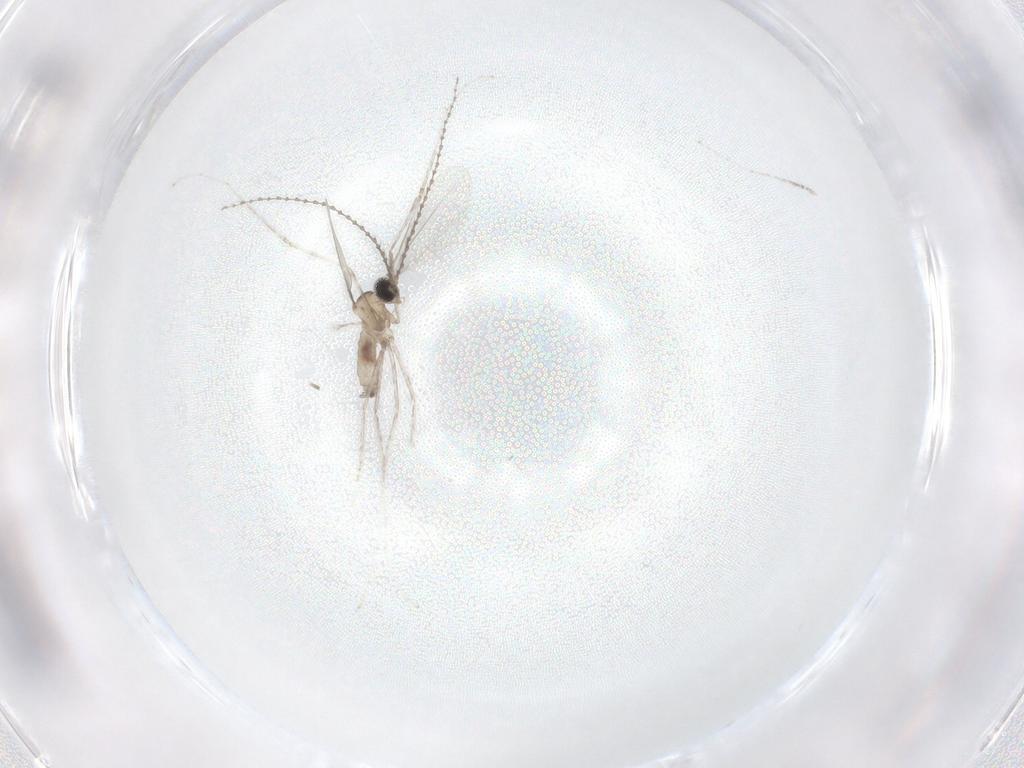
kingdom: Animalia
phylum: Arthropoda
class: Insecta
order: Diptera
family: Cecidomyiidae
